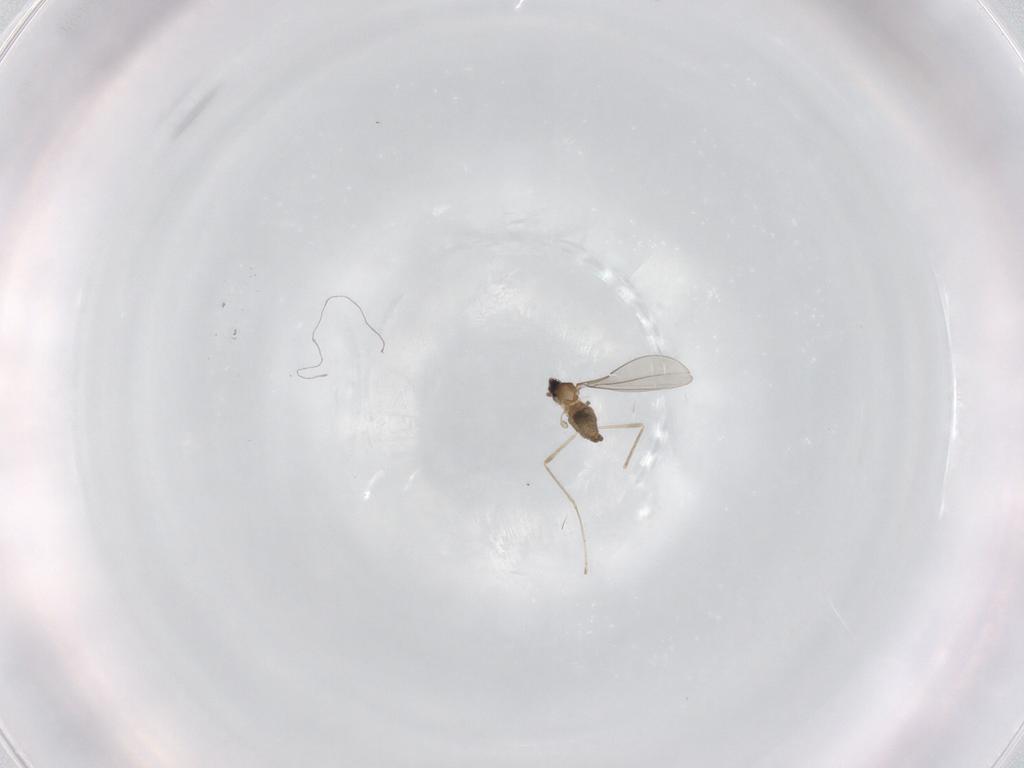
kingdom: Animalia
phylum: Arthropoda
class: Insecta
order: Diptera
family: Cecidomyiidae
